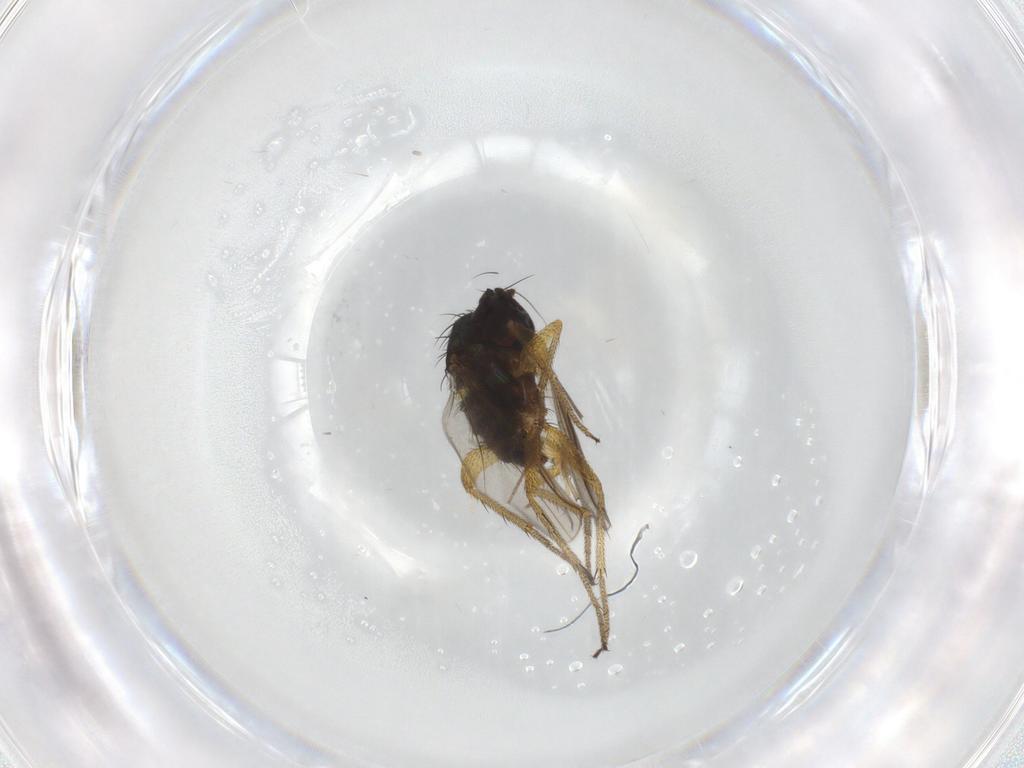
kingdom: Animalia
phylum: Arthropoda
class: Insecta
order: Diptera
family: Chironomidae
